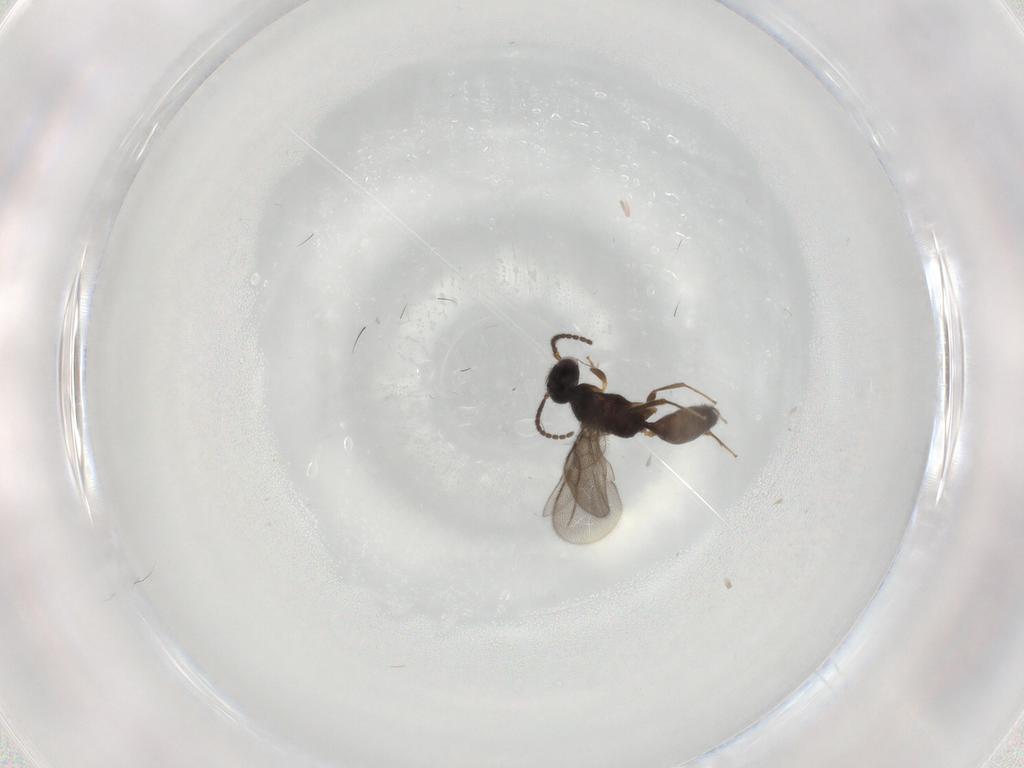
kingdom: Animalia
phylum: Arthropoda
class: Insecta
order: Hymenoptera
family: Bethylidae
